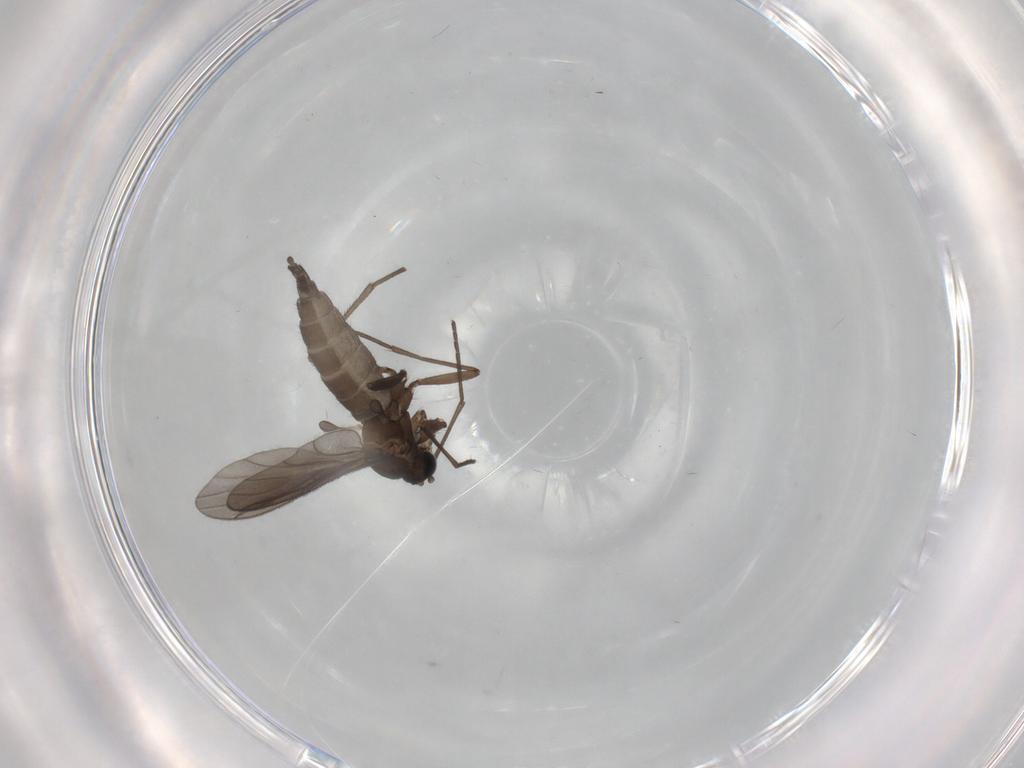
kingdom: Animalia
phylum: Arthropoda
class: Insecta
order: Diptera
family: Sciaridae
